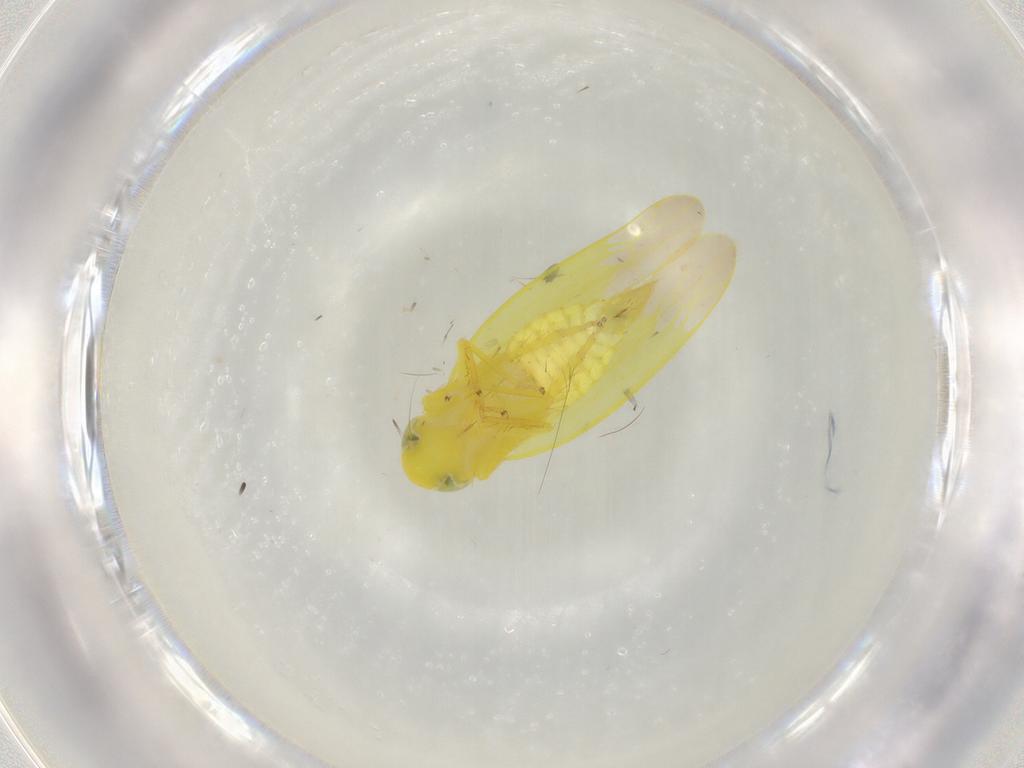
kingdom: Animalia
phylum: Arthropoda
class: Insecta
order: Hemiptera
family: Cicadellidae
